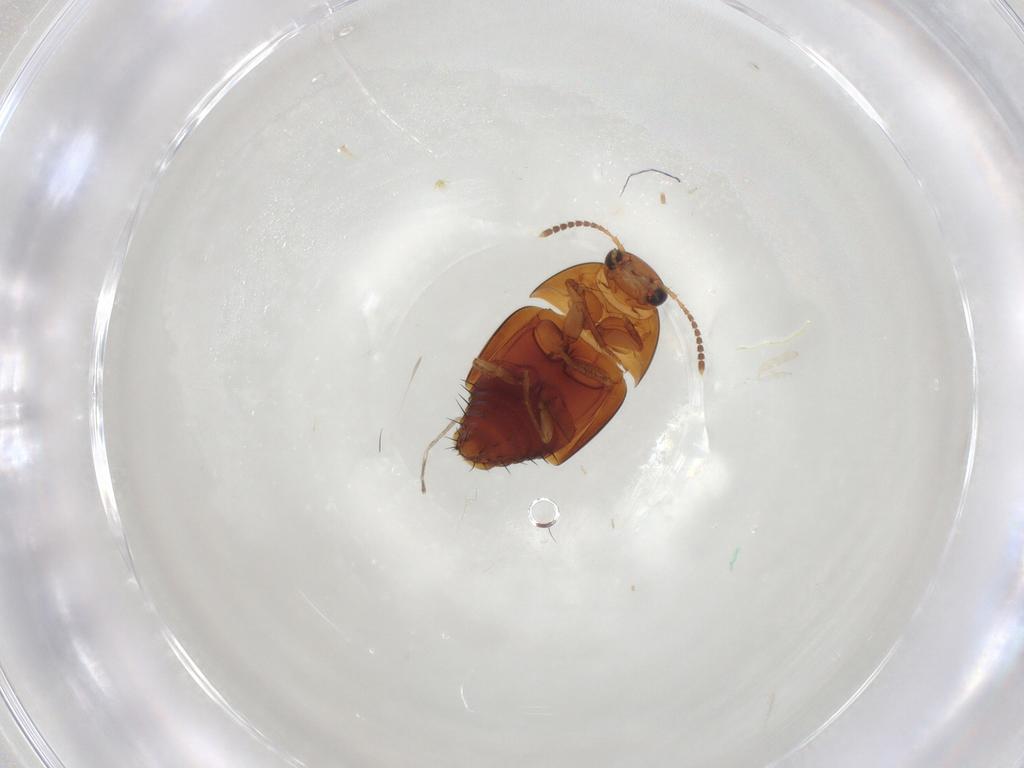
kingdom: Animalia
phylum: Arthropoda
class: Insecta
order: Coleoptera
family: Staphylinidae
